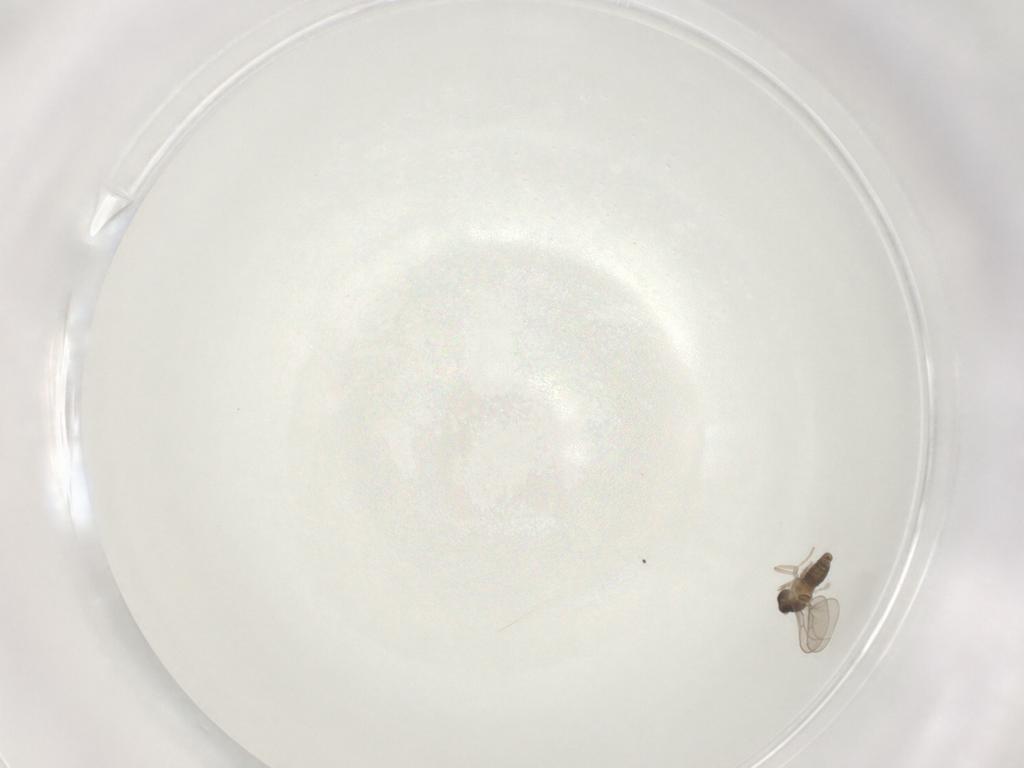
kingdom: Animalia
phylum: Arthropoda
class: Insecta
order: Diptera
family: Cecidomyiidae
